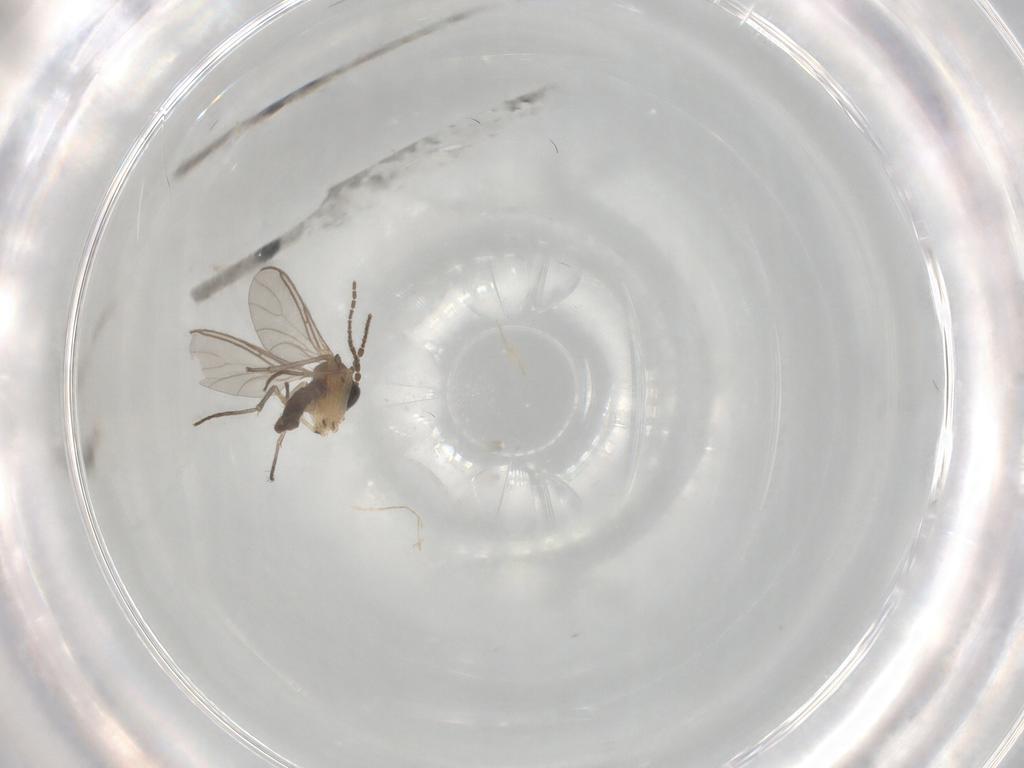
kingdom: Animalia
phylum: Arthropoda
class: Insecta
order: Diptera
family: Sciaridae
